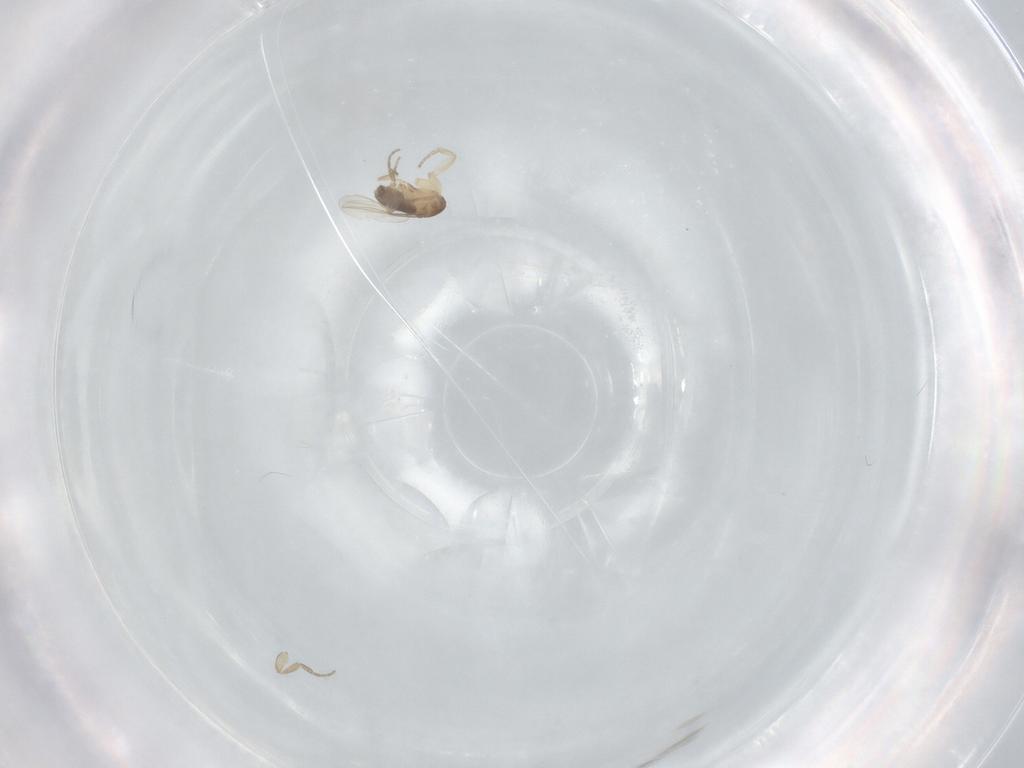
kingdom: Animalia
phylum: Arthropoda
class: Insecta
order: Diptera
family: Phoridae
